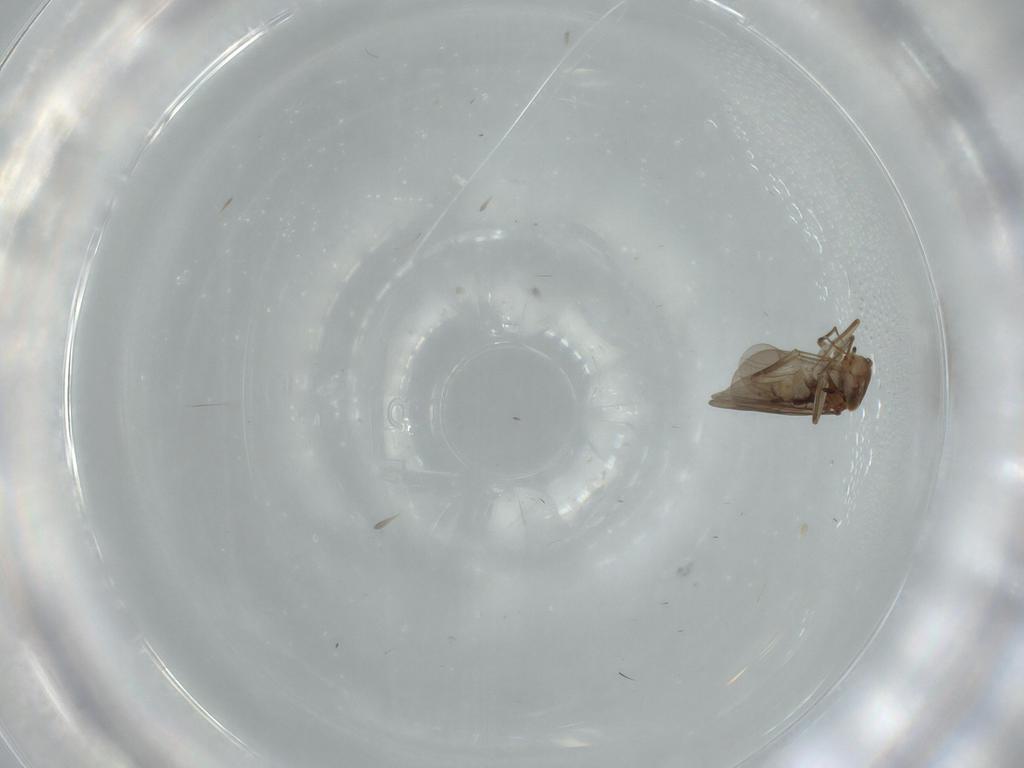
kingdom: Animalia
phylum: Arthropoda
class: Insecta
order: Psocodea
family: Lepidopsocidae
